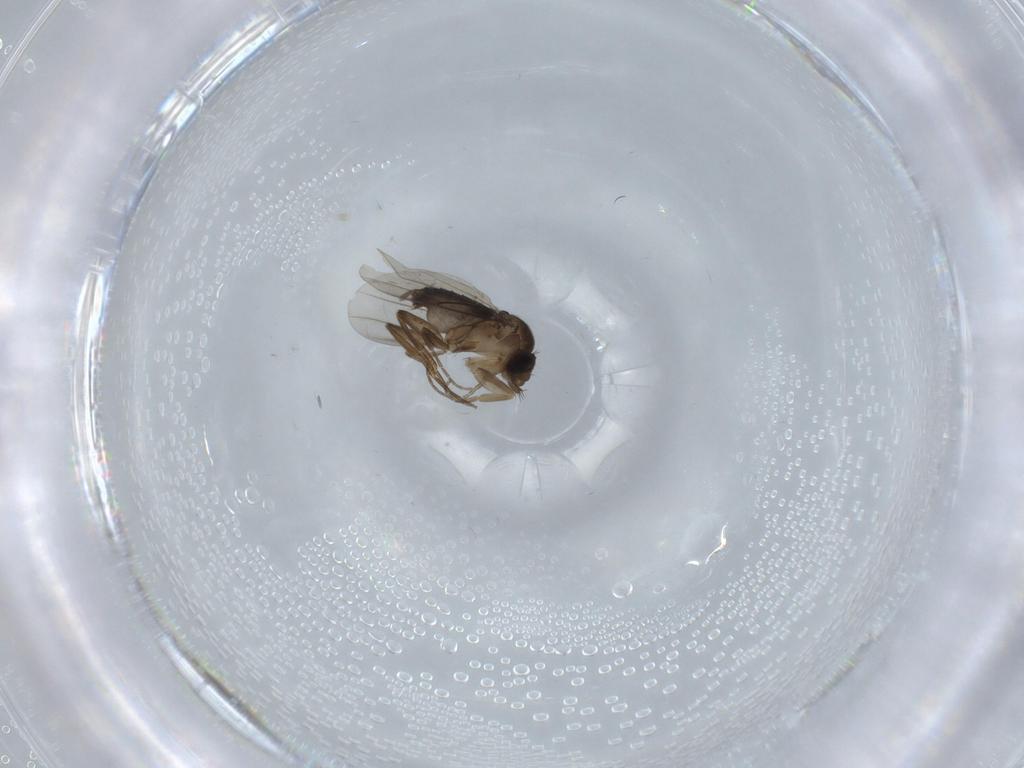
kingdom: Animalia
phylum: Arthropoda
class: Insecta
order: Diptera
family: Phoridae
